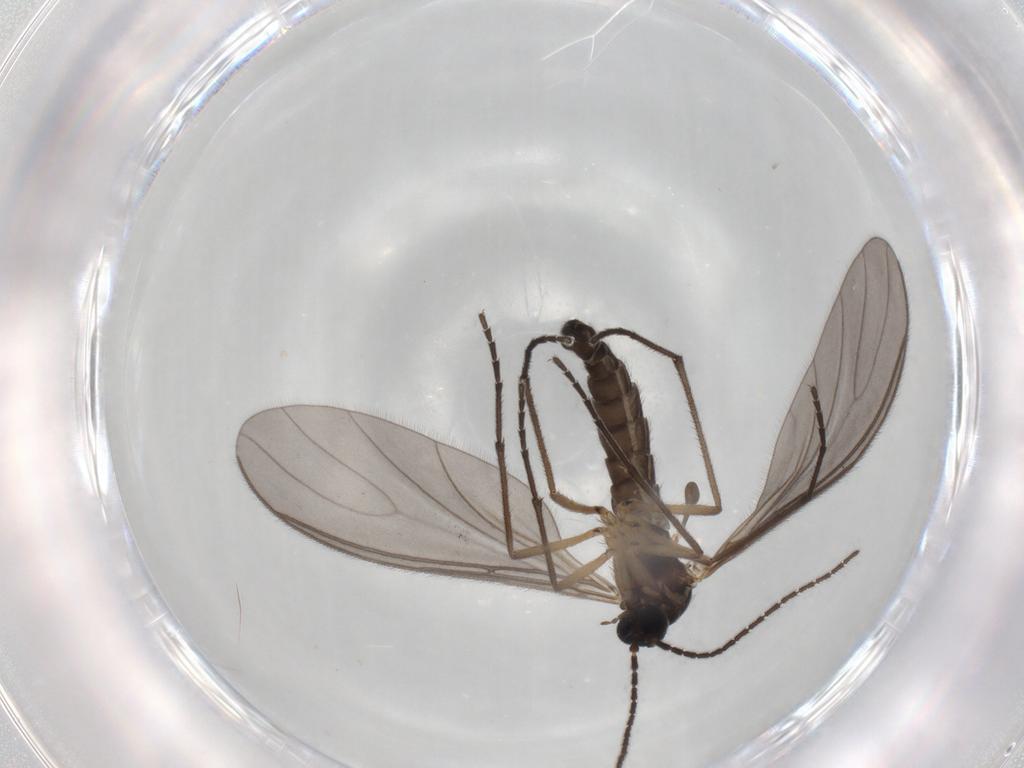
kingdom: Animalia
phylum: Arthropoda
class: Insecta
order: Diptera
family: Sciaridae
